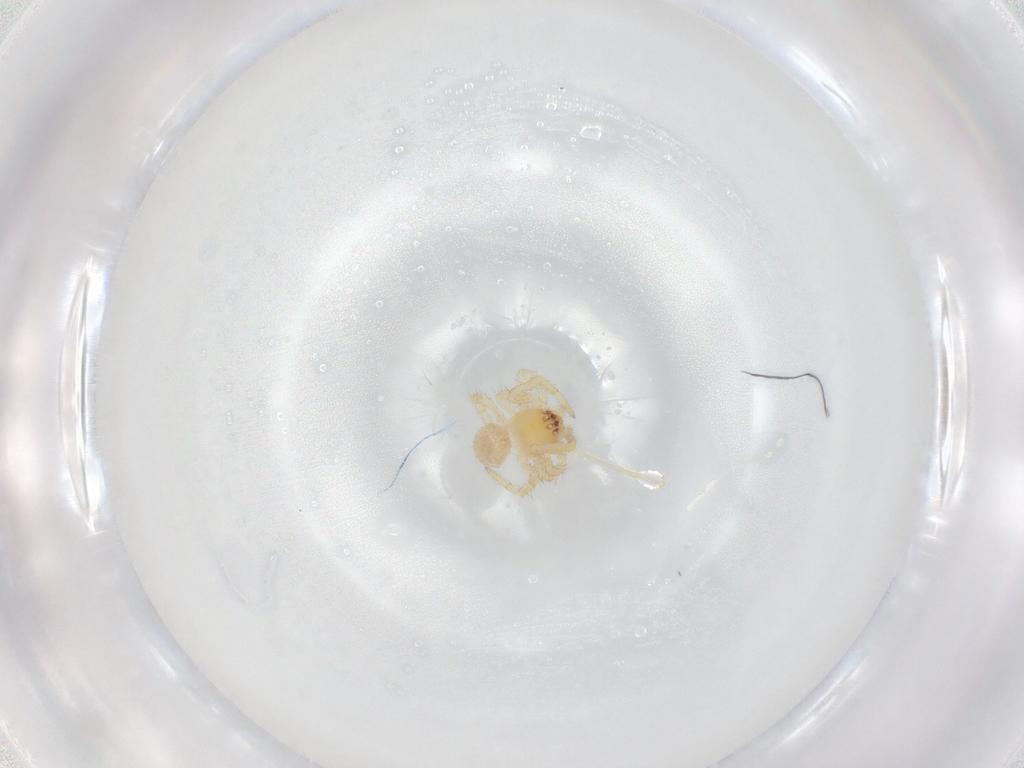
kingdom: Animalia
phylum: Arthropoda
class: Arachnida
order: Araneae
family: Theridiidae
